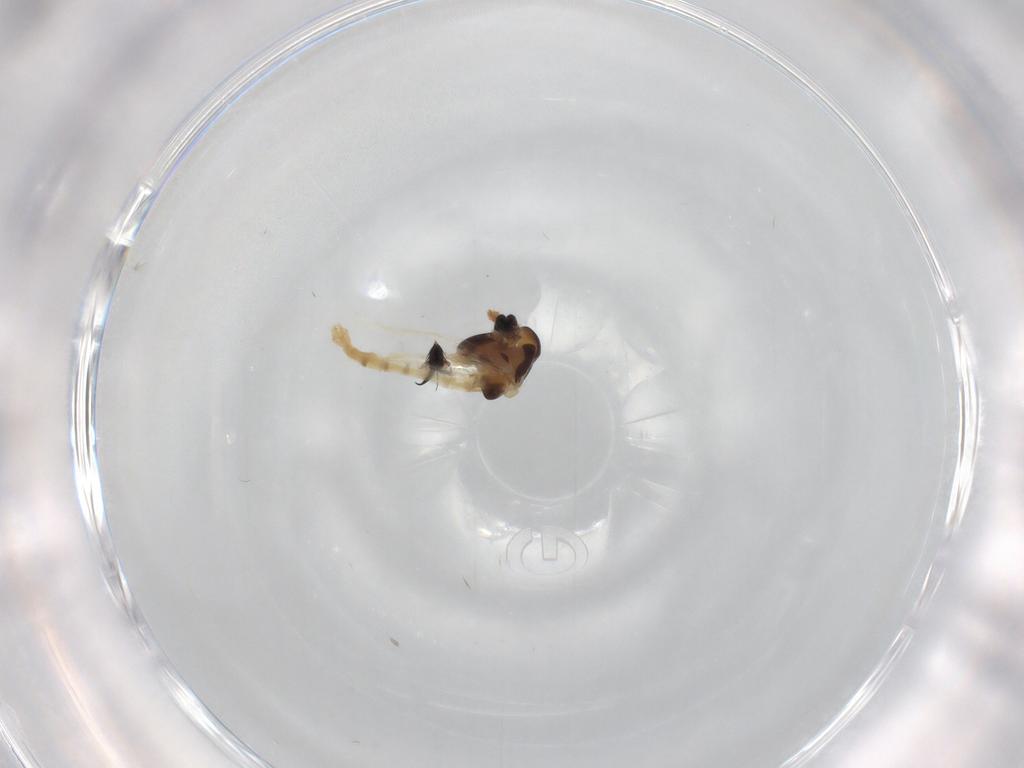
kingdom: Animalia
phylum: Arthropoda
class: Insecta
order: Diptera
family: Chironomidae
